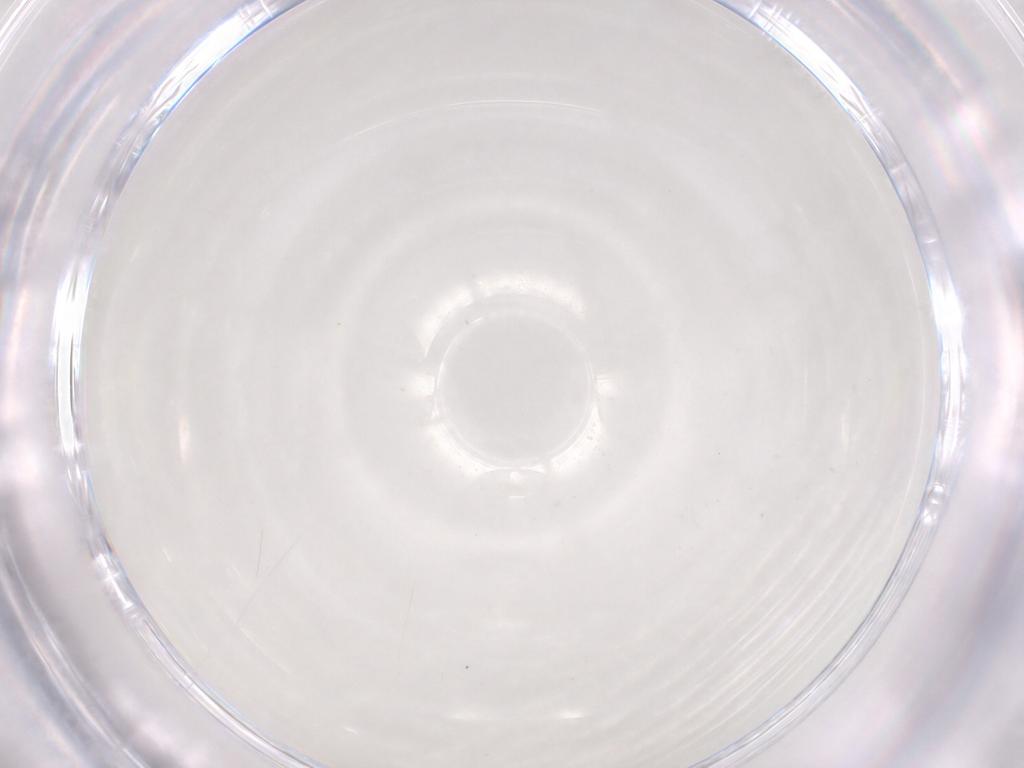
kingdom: Animalia
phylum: Arthropoda
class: Insecta
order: Hemiptera
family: Aleyrodidae
